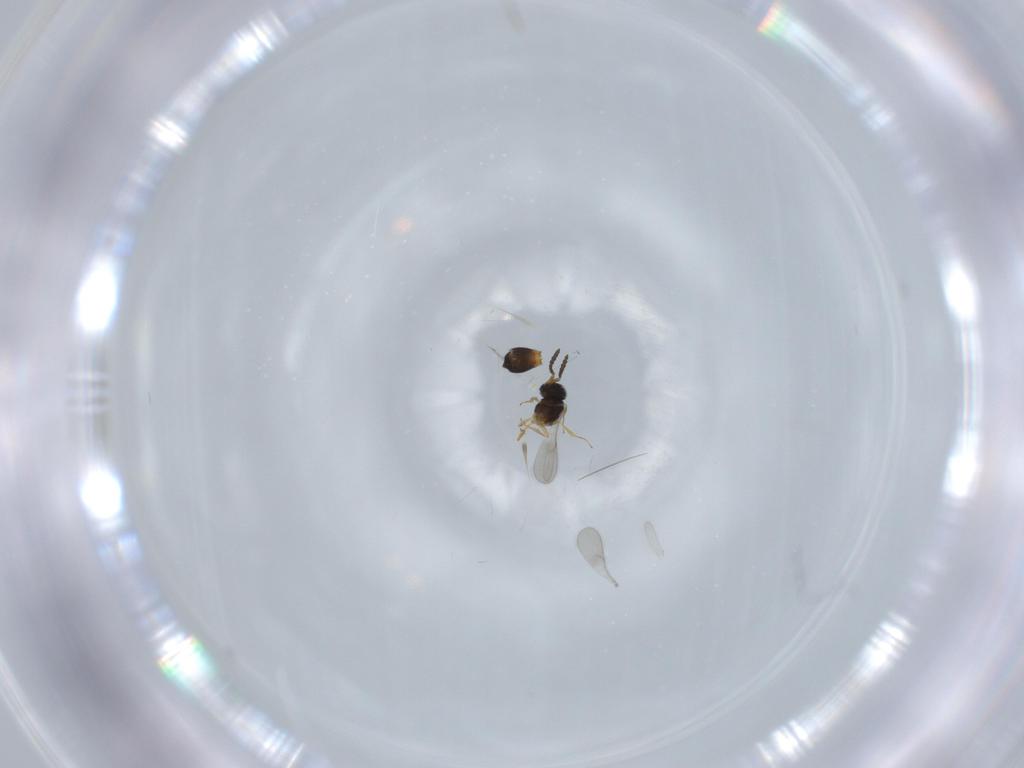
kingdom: Animalia
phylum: Arthropoda
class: Insecta
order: Hymenoptera
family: Scelionidae
